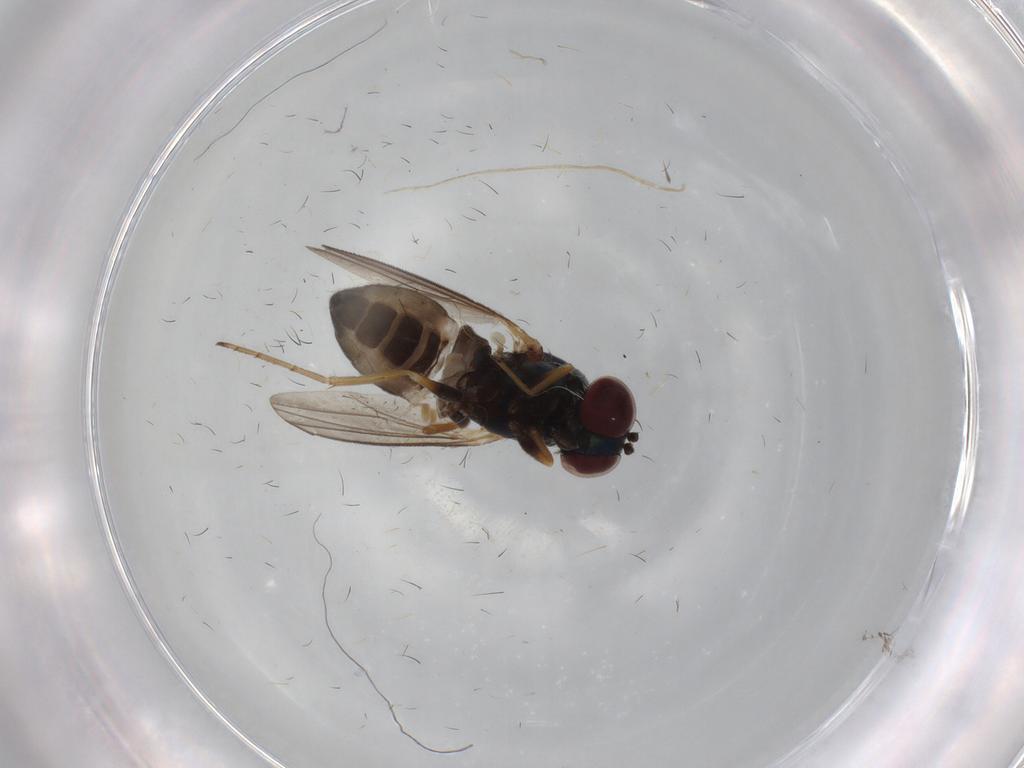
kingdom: Animalia
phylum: Arthropoda
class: Insecta
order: Diptera
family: Dolichopodidae
